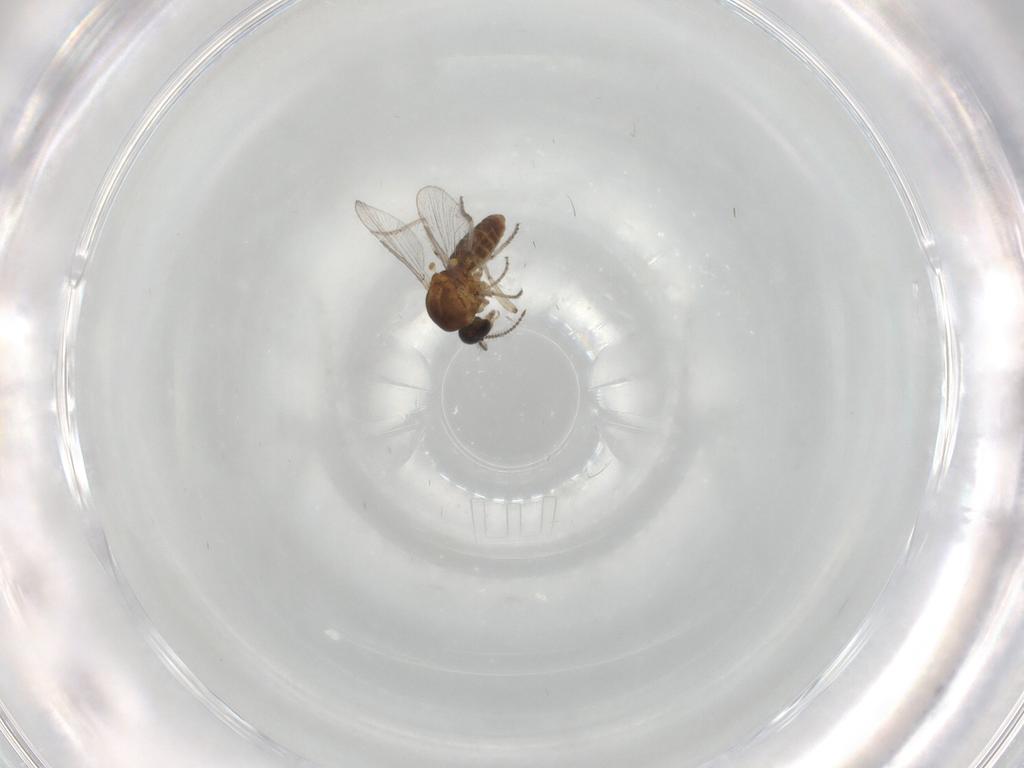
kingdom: Animalia
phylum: Arthropoda
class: Insecta
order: Diptera
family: Ceratopogonidae
